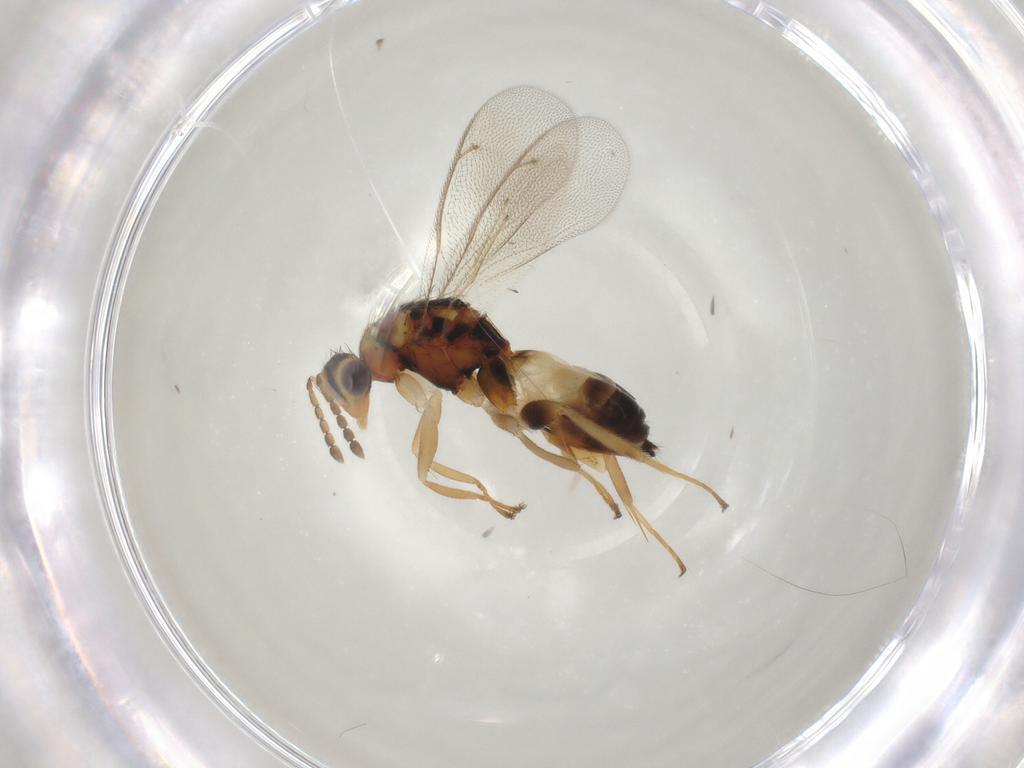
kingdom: Animalia
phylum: Arthropoda
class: Insecta
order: Hymenoptera
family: Eulophidae
